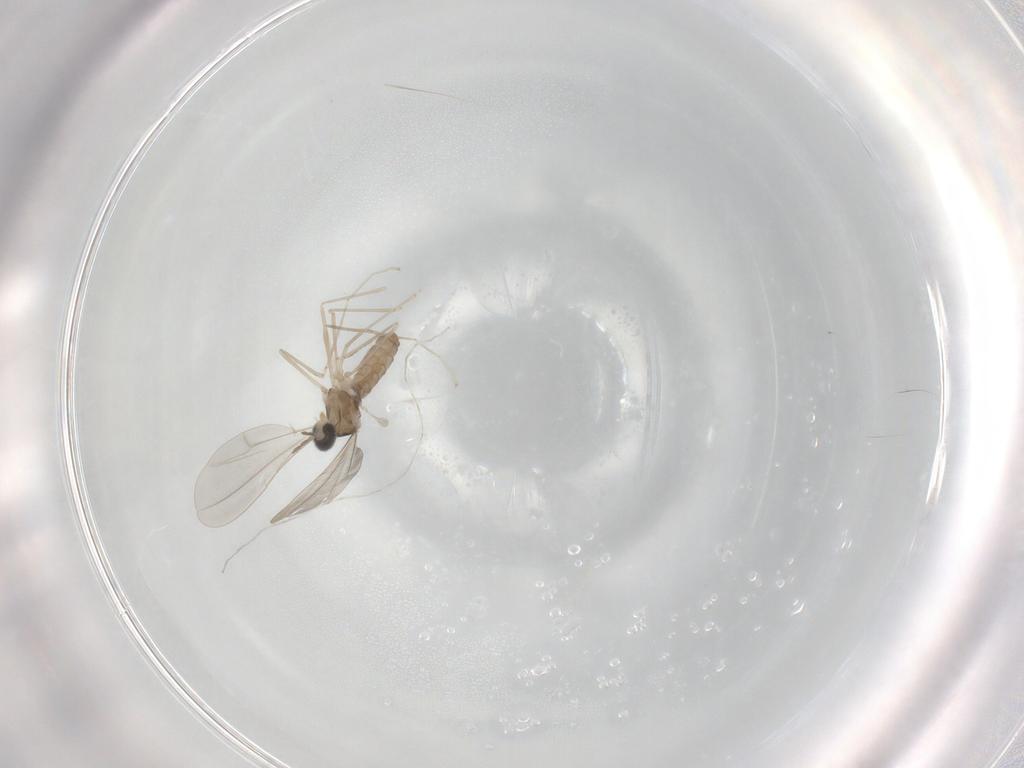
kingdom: Animalia
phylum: Arthropoda
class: Insecta
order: Diptera
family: Cecidomyiidae
